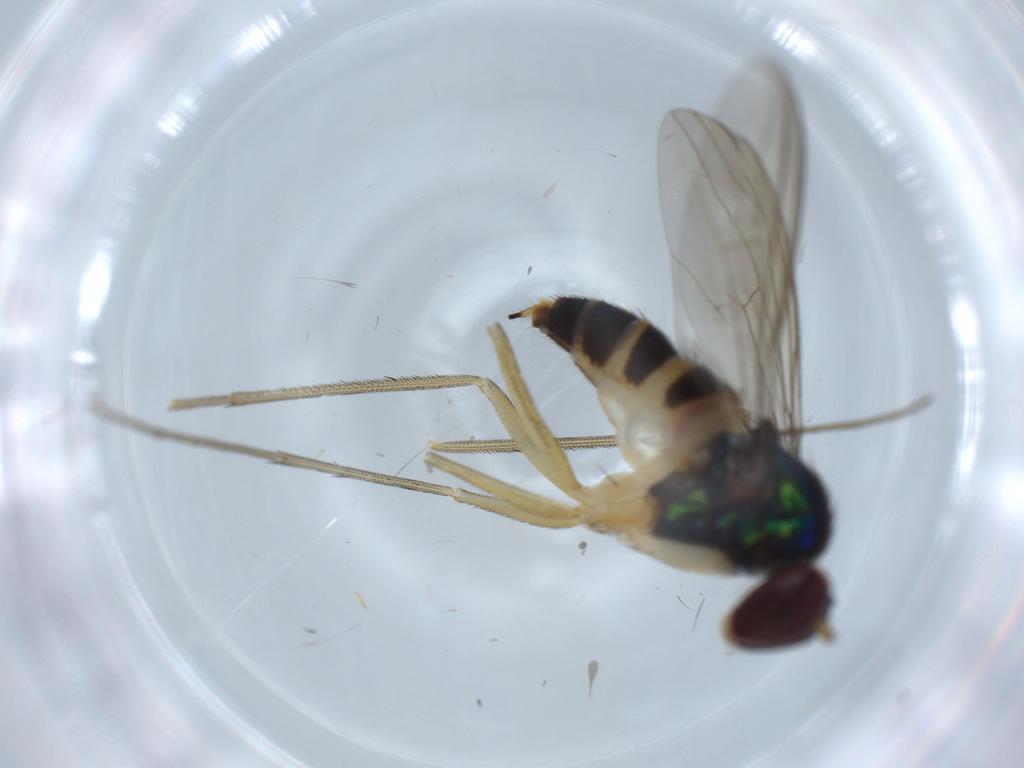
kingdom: Animalia
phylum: Arthropoda
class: Insecta
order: Diptera
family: Dolichopodidae
